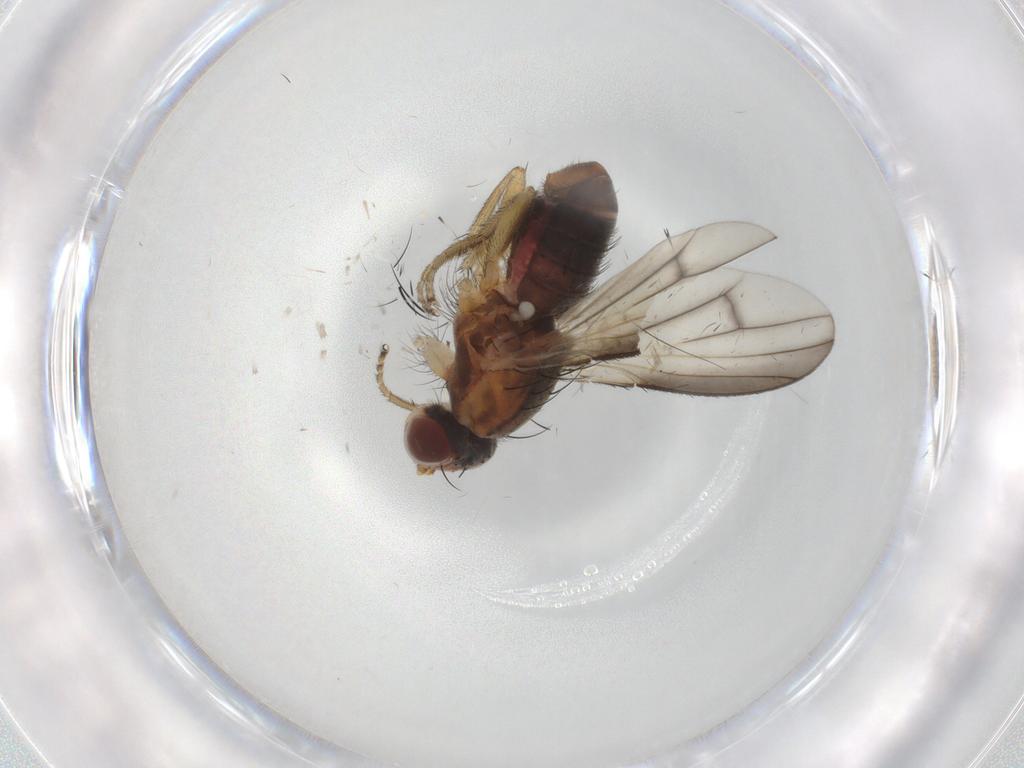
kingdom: Animalia
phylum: Arthropoda
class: Insecta
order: Diptera
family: Heleomyzidae
